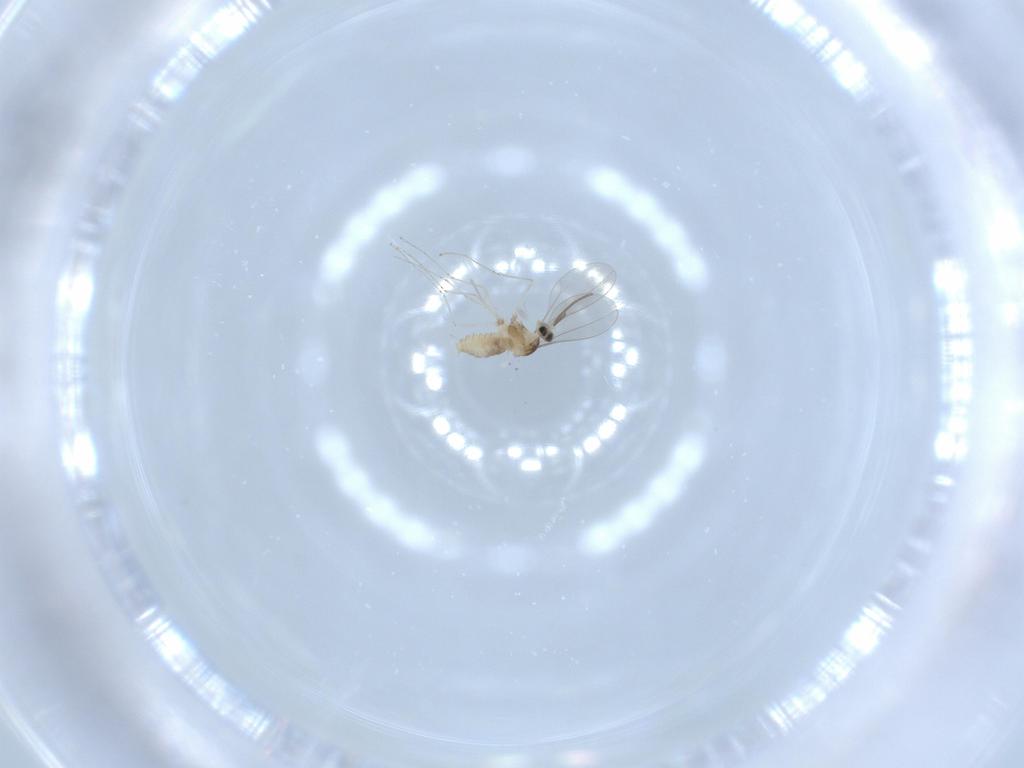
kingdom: Animalia
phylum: Arthropoda
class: Insecta
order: Diptera
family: Cecidomyiidae
